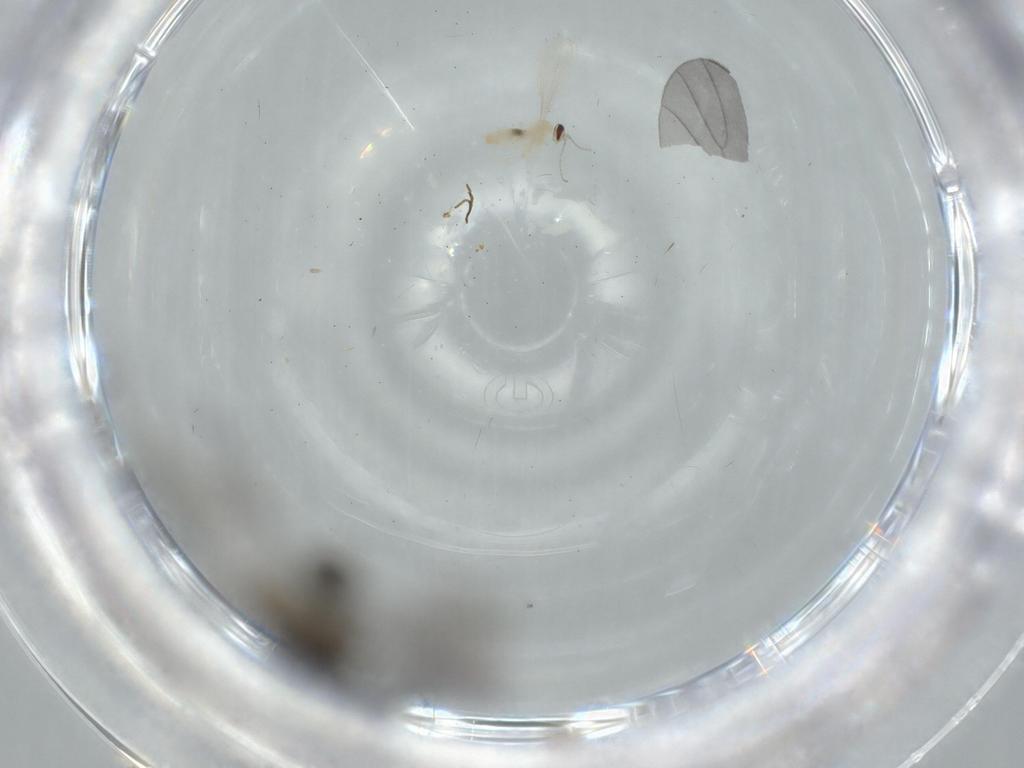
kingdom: Animalia
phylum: Arthropoda
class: Insecta
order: Diptera
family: Sciaridae
